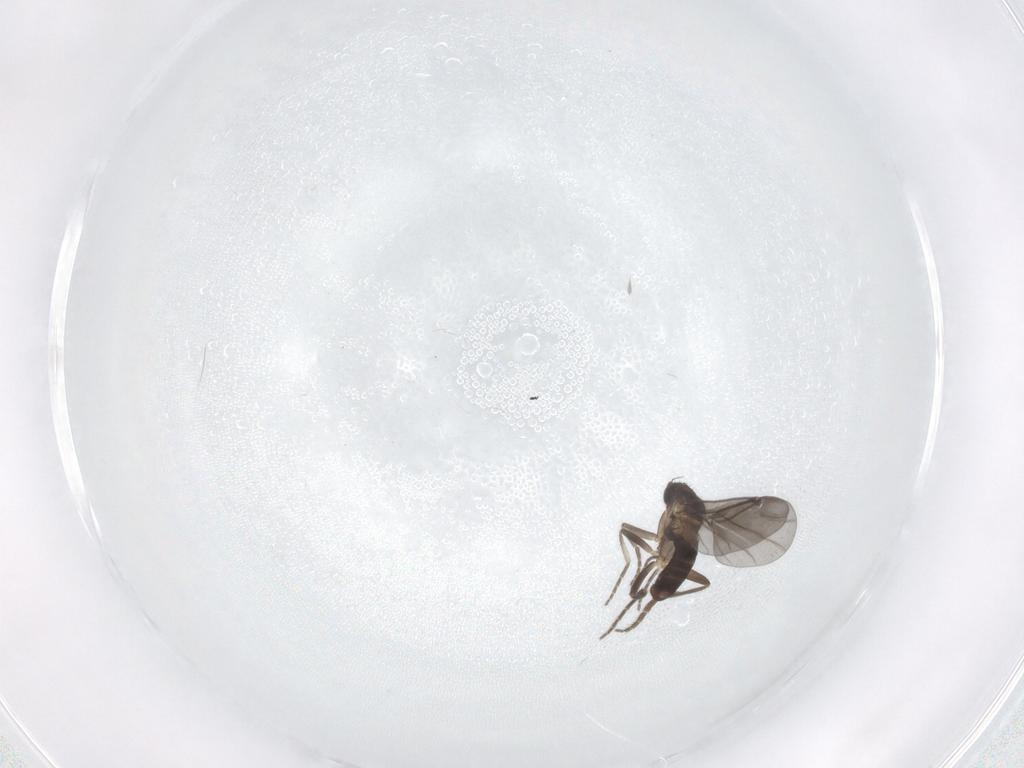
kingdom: Animalia
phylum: Arthropoda
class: Insecta
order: Diptera
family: Phoridae
